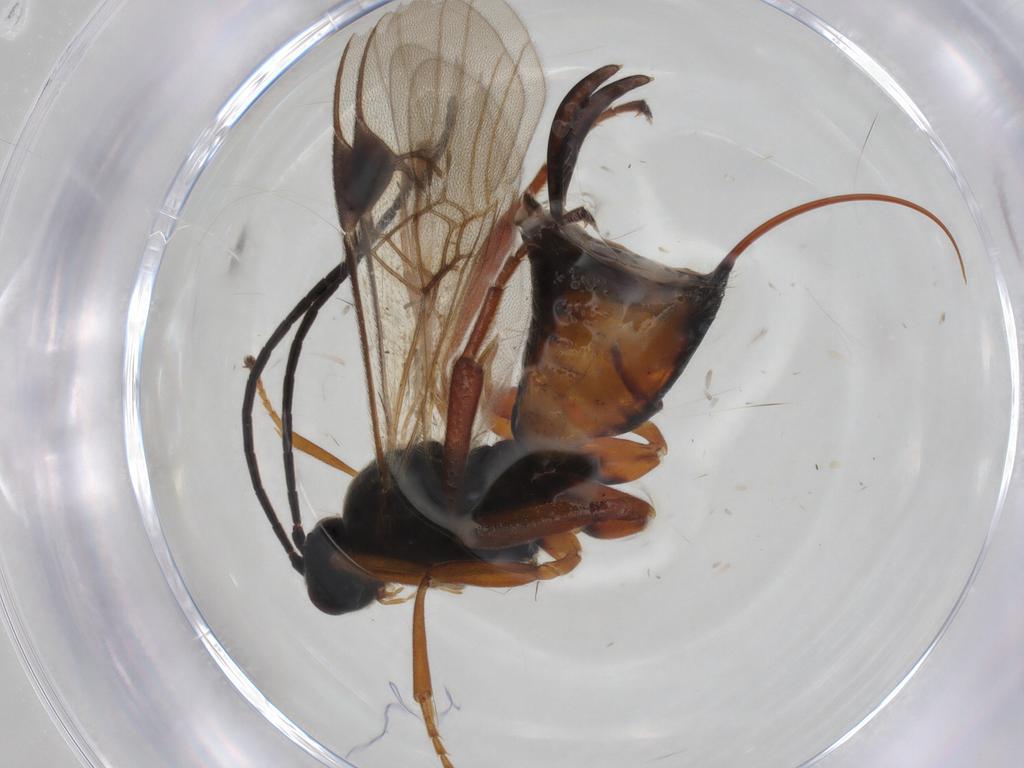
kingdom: Animalia
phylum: Arthropoda
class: Insecta
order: Lepidoptera
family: Tortricidae
